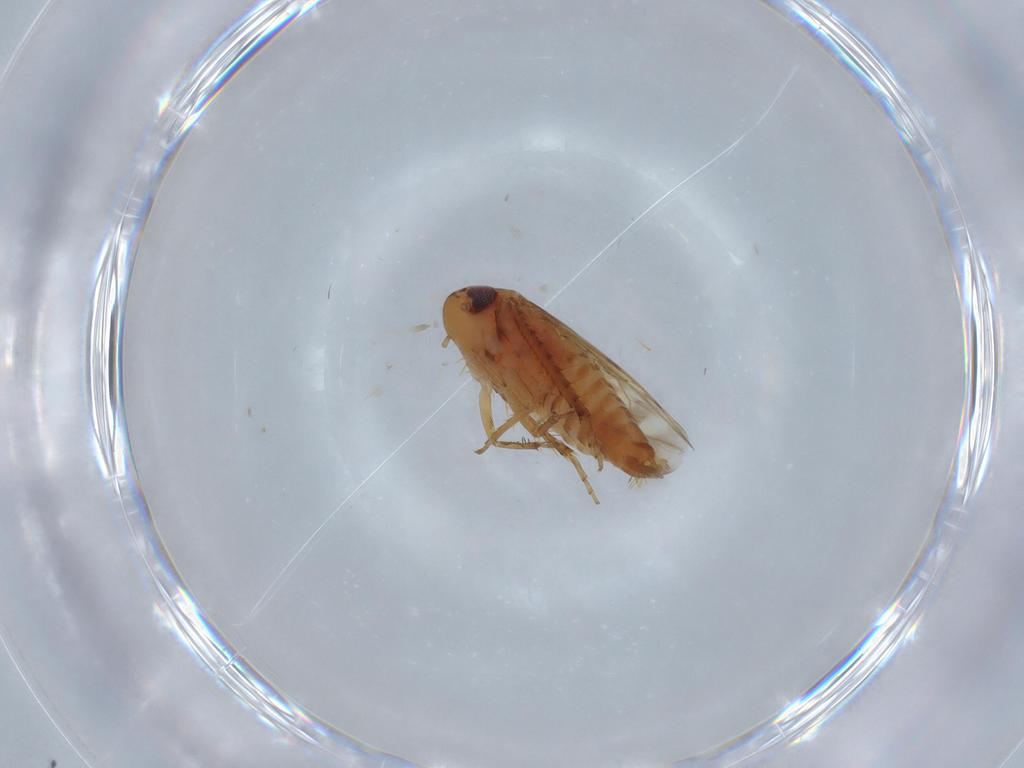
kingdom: Animalia
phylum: Arthropoda
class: Insecta
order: Hemiptera
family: Cicadellidae
